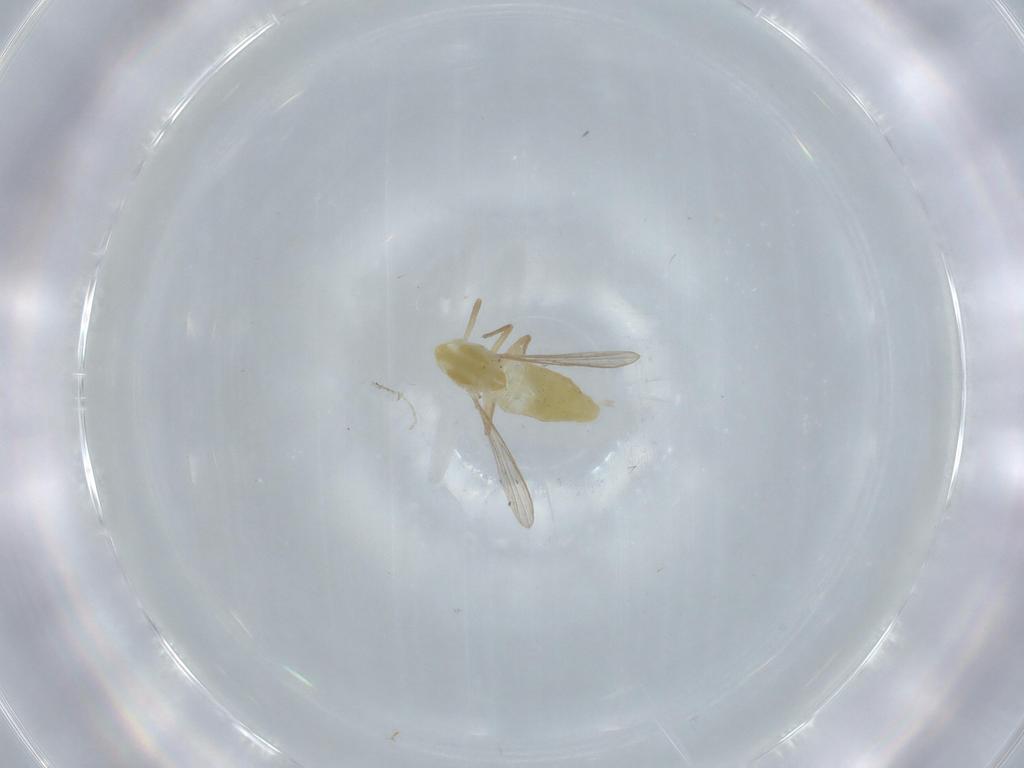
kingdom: Animalia
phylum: Arthropoda
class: Insecta
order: Diptera
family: Chironomidae
